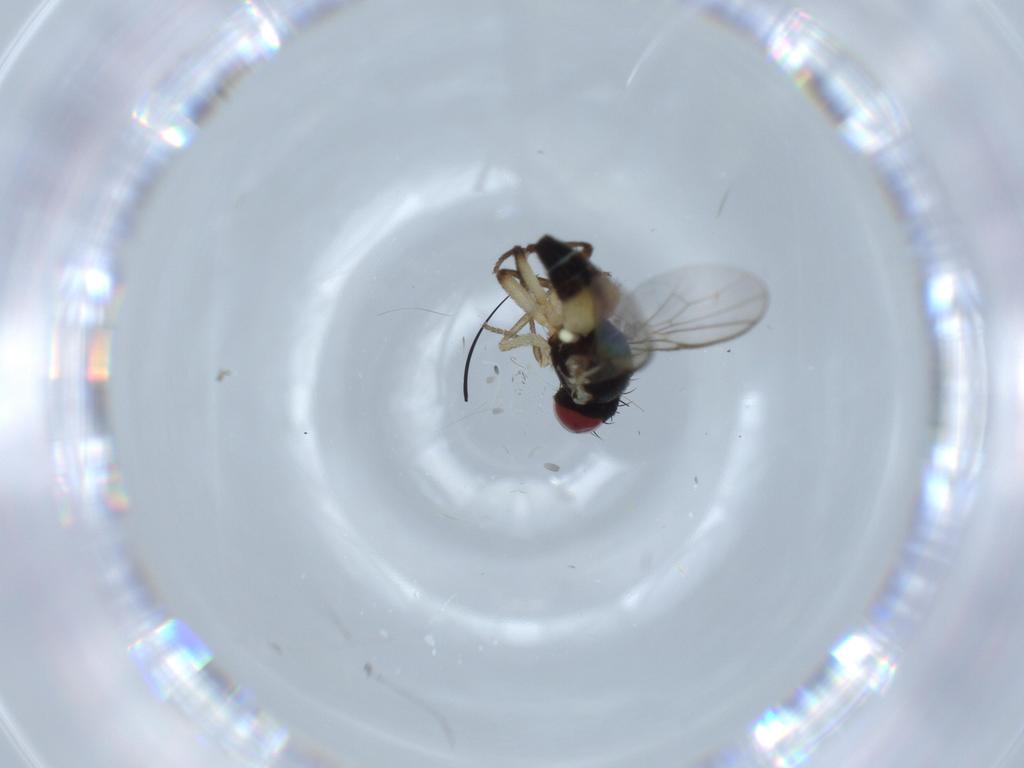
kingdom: Animalia
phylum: Arthropoda
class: Insecta
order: Diptera
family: Agromyzidae
